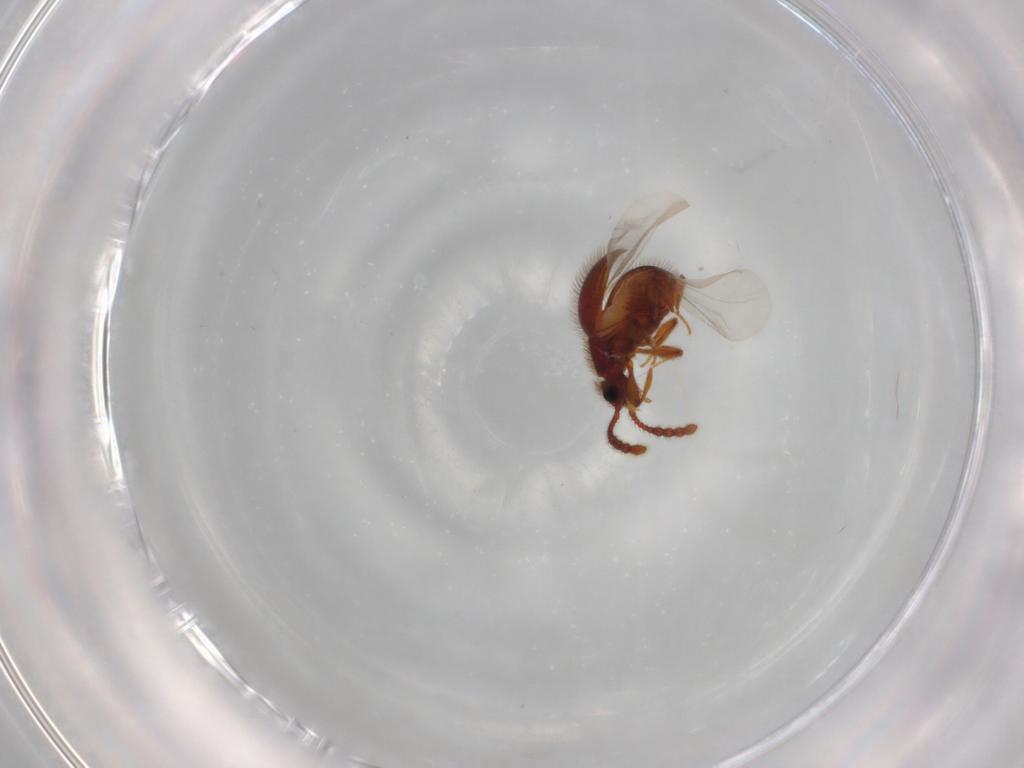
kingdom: Animalia
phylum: Arthropoda
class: Insecta
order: Coleoptera
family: Staphylinidae
